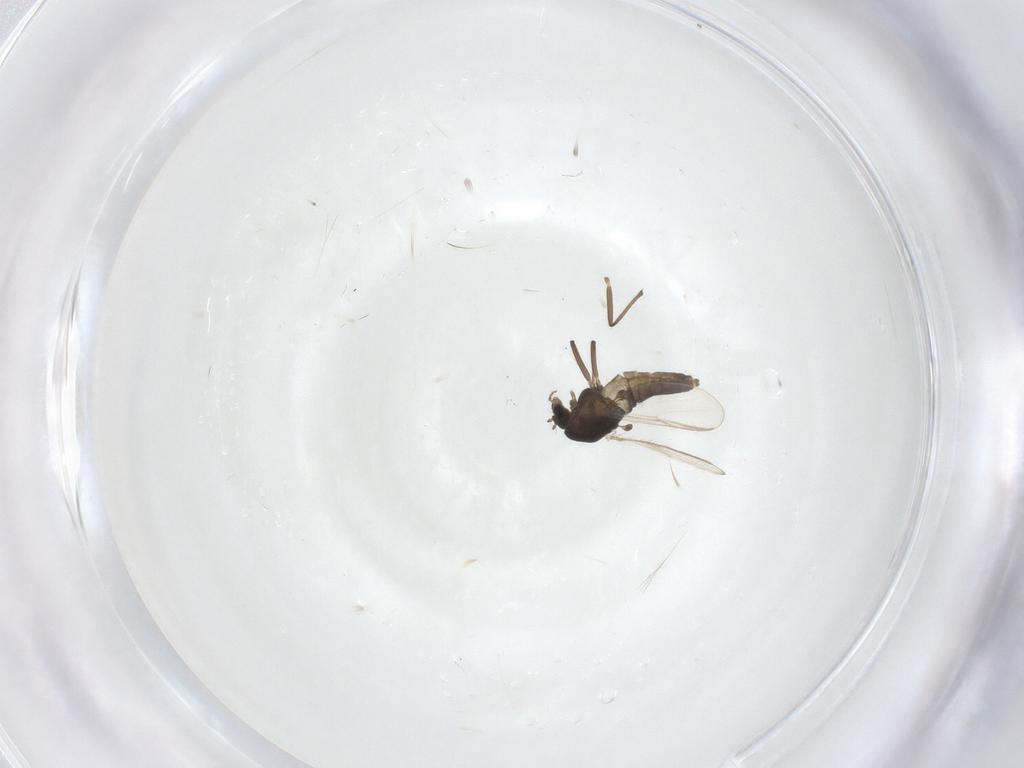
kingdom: Animalia
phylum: Arthropoda
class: Insecta
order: Diptera
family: Chironomidae
